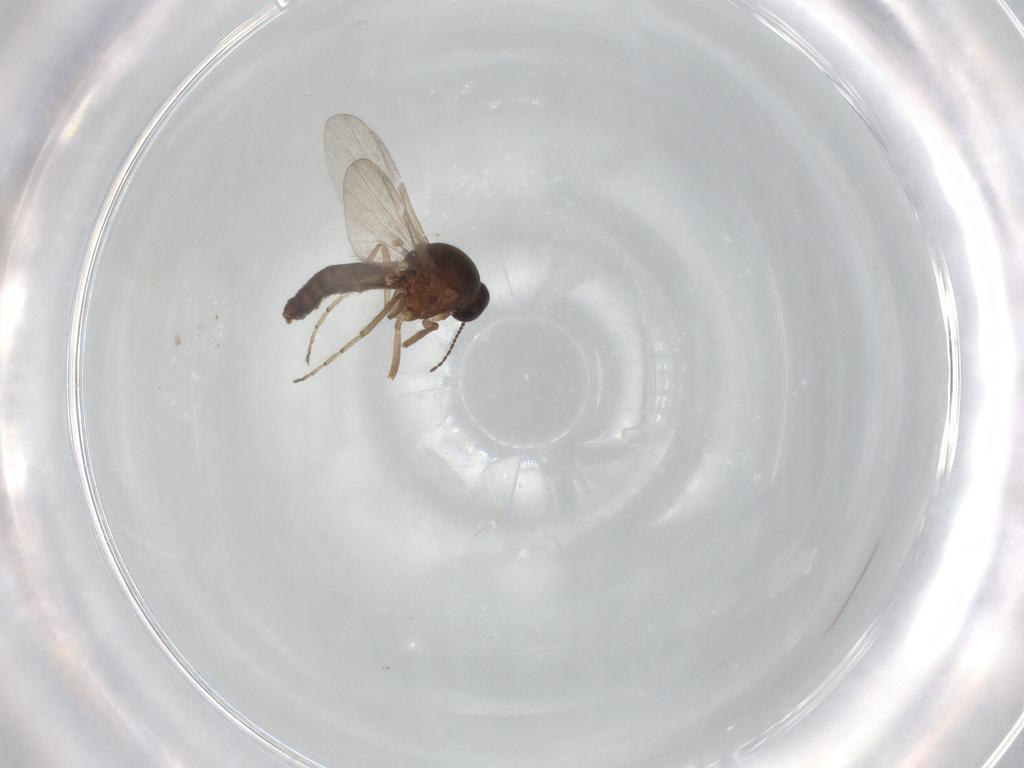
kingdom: Animalia
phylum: Arthropoda
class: Insecta
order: Diptera
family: Ceratopogonidae
